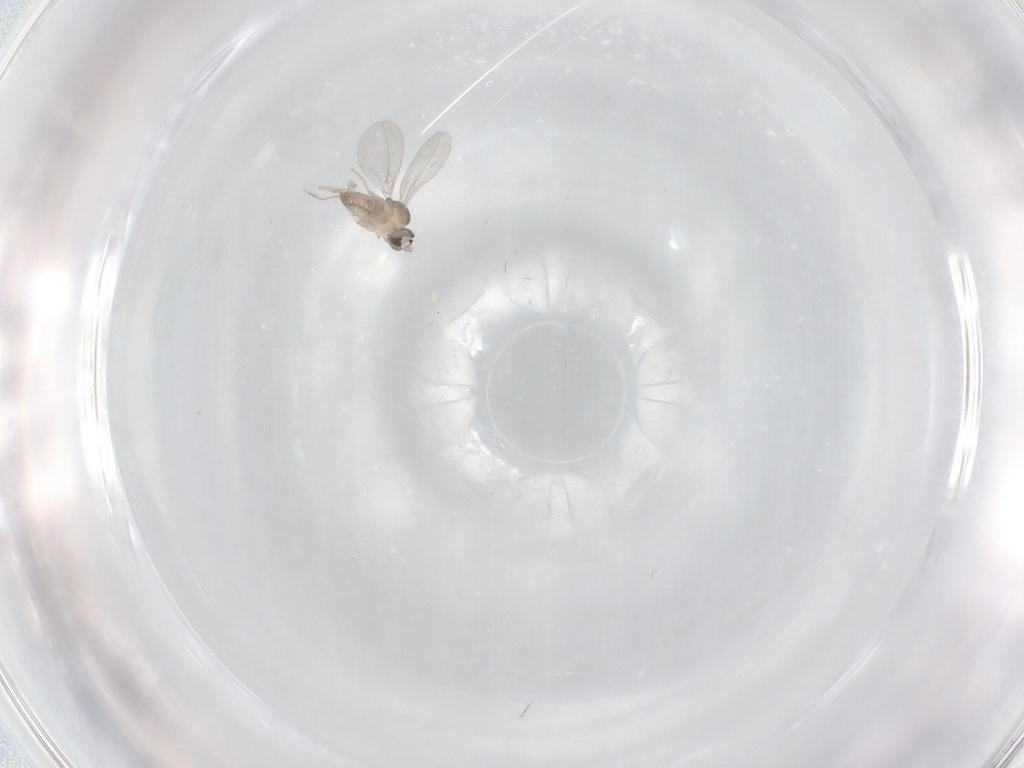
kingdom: Animalia
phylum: Arthropoda
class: Insecta
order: Diptera
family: Cecidomyiidae
